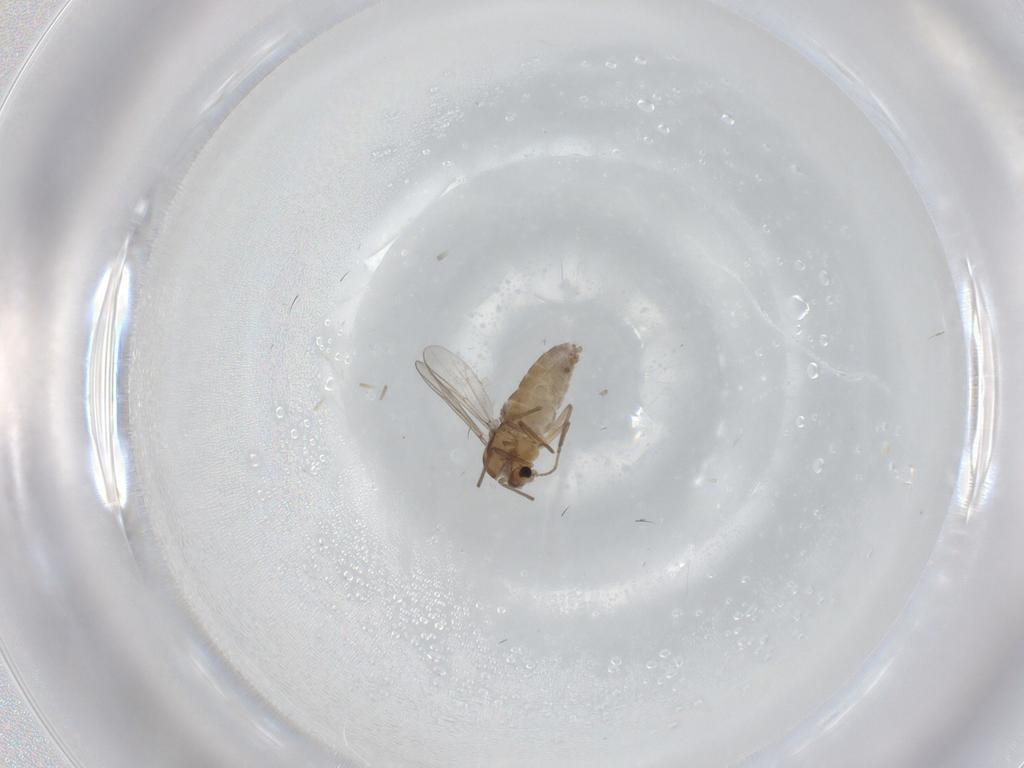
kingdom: Animalia
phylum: Arthropoda
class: Insecta
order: Diptera
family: Chironomidae
